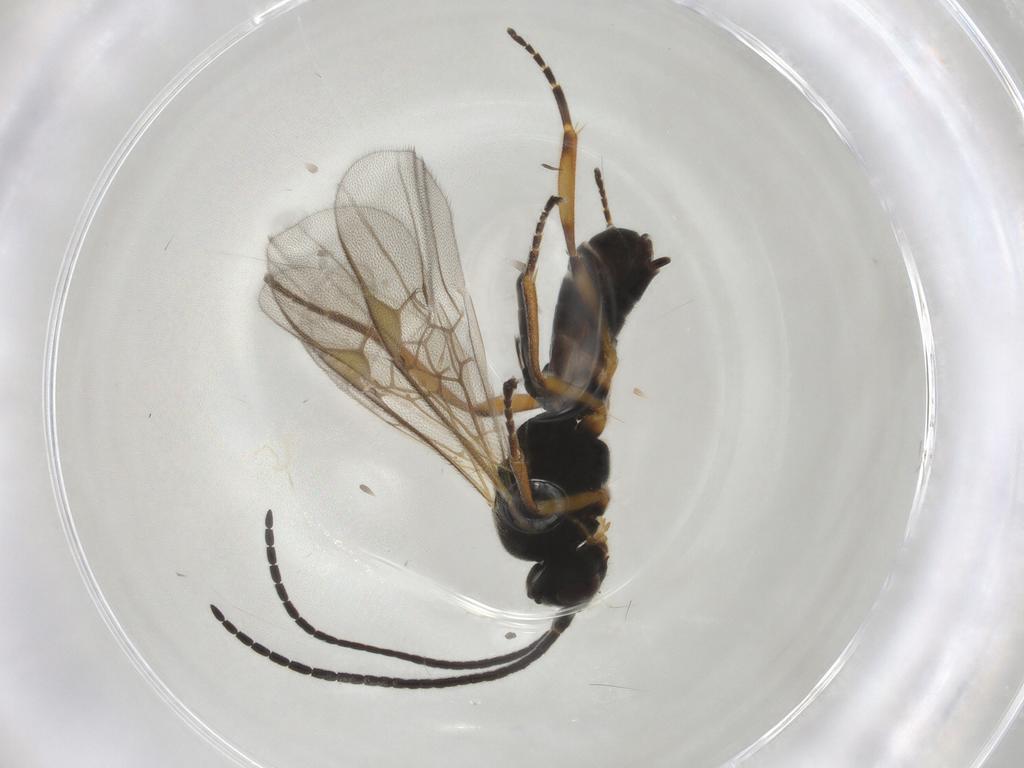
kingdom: Animalia
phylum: Arthropoda
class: Insecta
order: Hymenoptera
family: Braconidae
